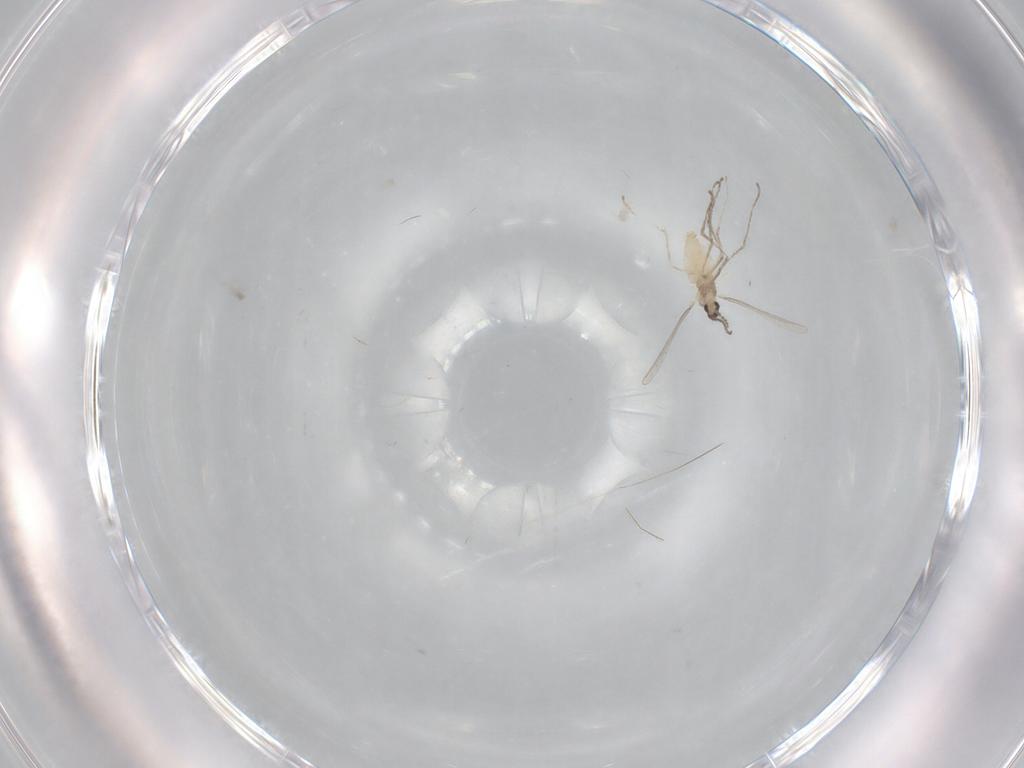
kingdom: Animalia
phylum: Arthropoda
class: Insecta
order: Diptera
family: Cecidomyiidae
